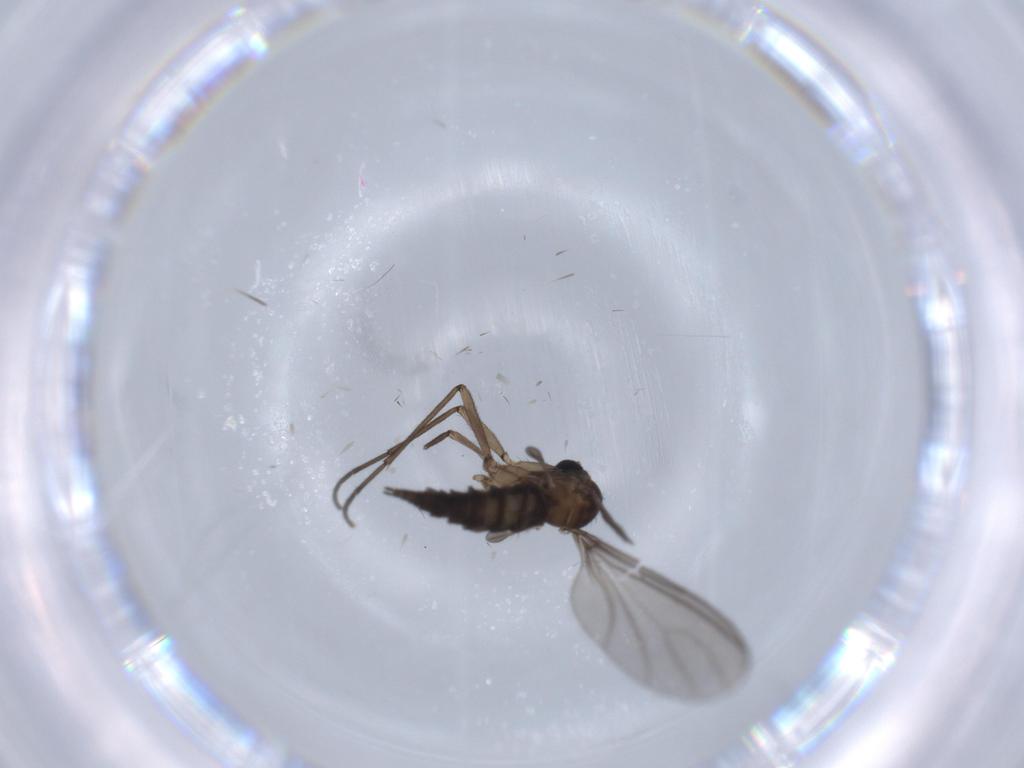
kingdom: Animalia
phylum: Arthropoda
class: Insecta
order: Diptera
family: Sciaridae
